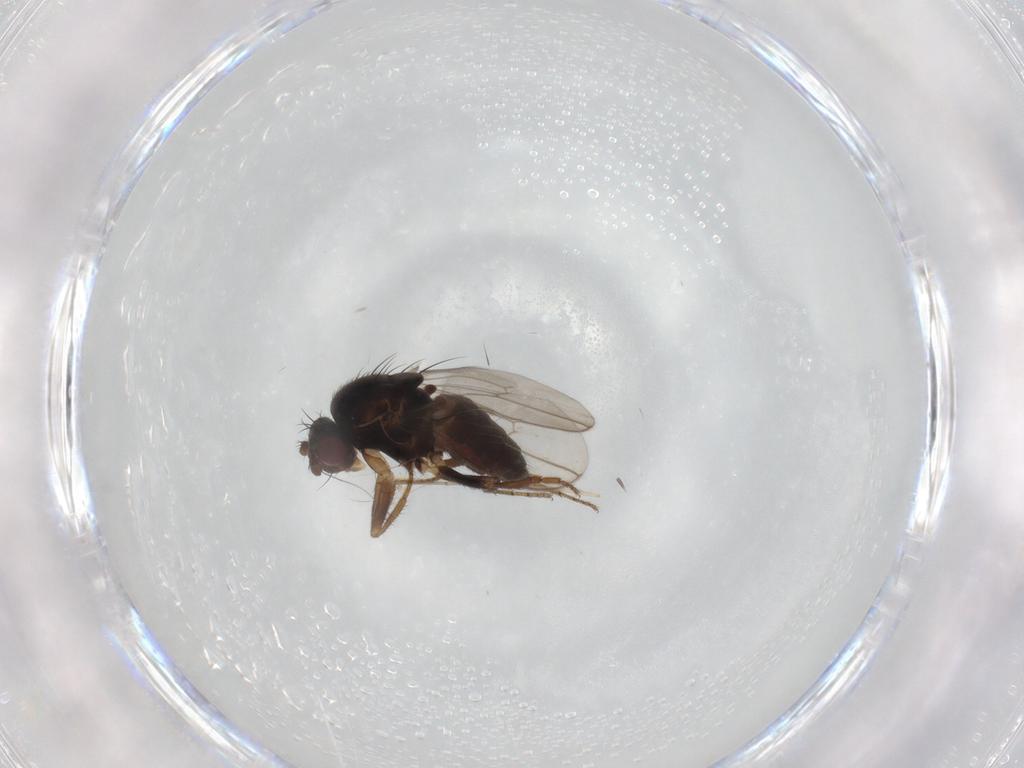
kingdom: Animalia
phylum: Arthropoda
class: Insecta
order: Diptera
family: Sphaeroceridae
